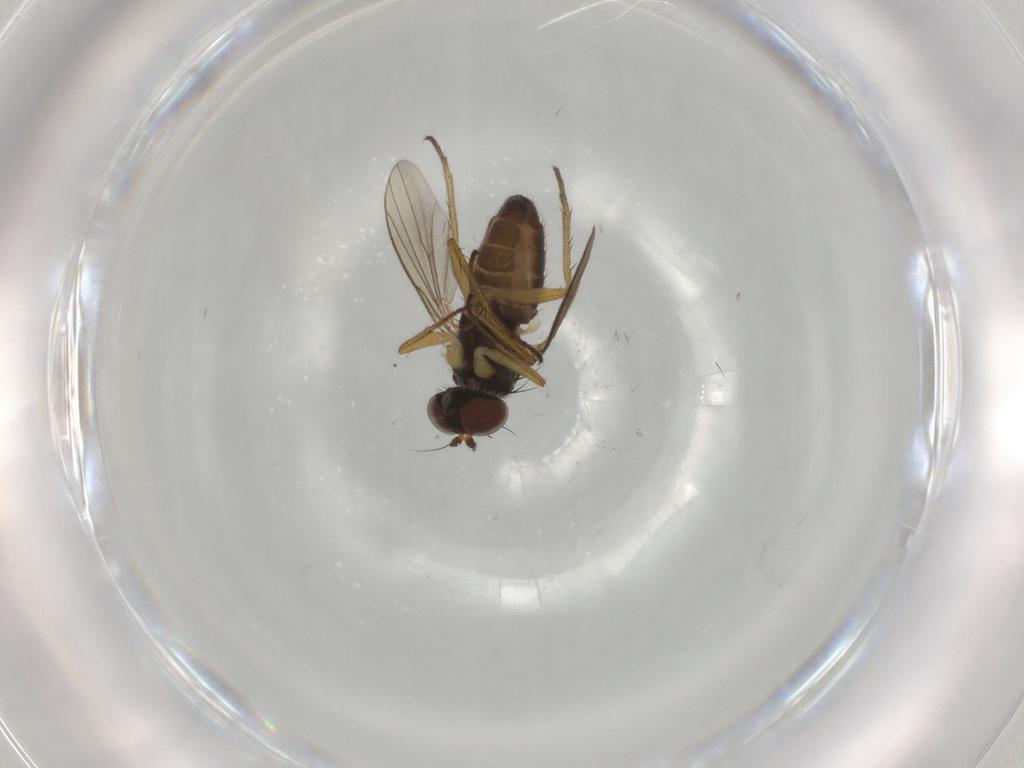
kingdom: Animalia
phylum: Arthropoda
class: Insecta
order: Diptera
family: Dolichopodidae
